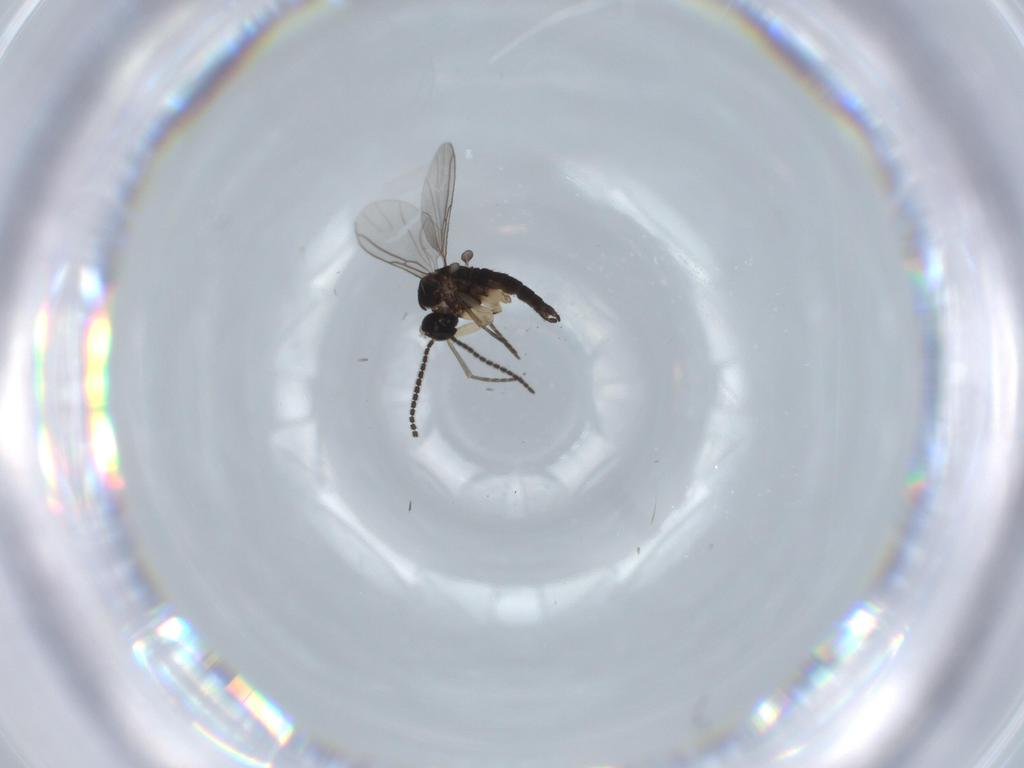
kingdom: Animalia
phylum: Arthropoda
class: Insecta
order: Diptera
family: Sciaridae
